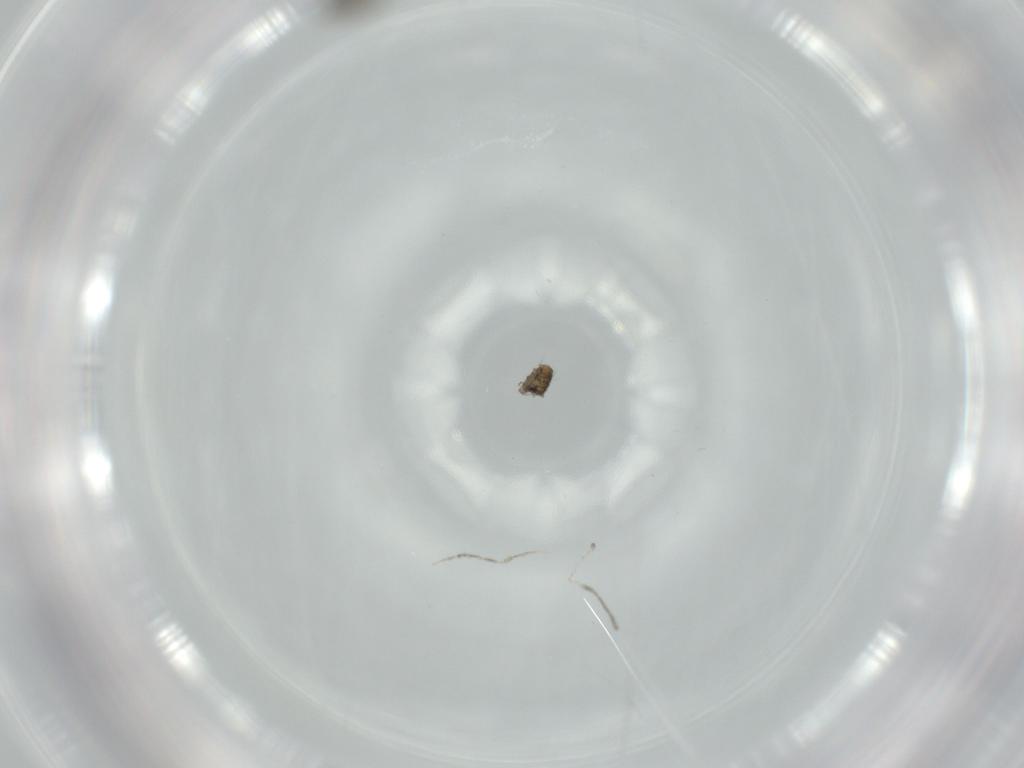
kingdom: Animalia
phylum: Arthropoda
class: Insecta
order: Diptera
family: Cecidomyiidae
